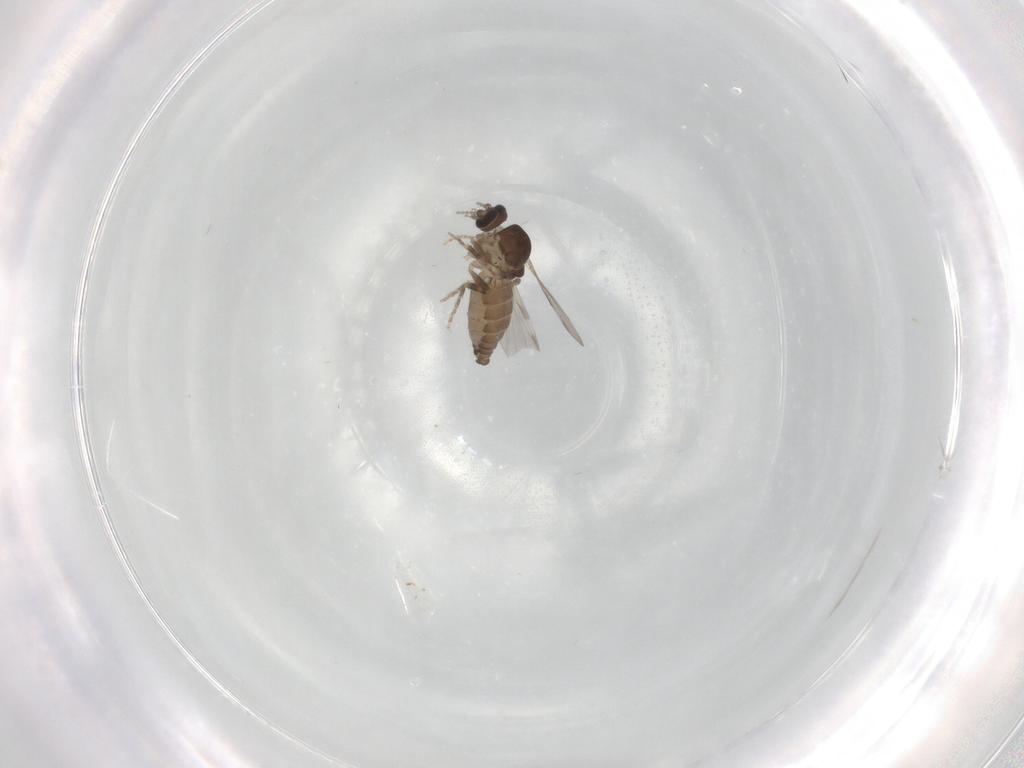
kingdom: Animalia
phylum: Arthropoda
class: Insecta
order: Diptera
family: Ceratopogonidae
